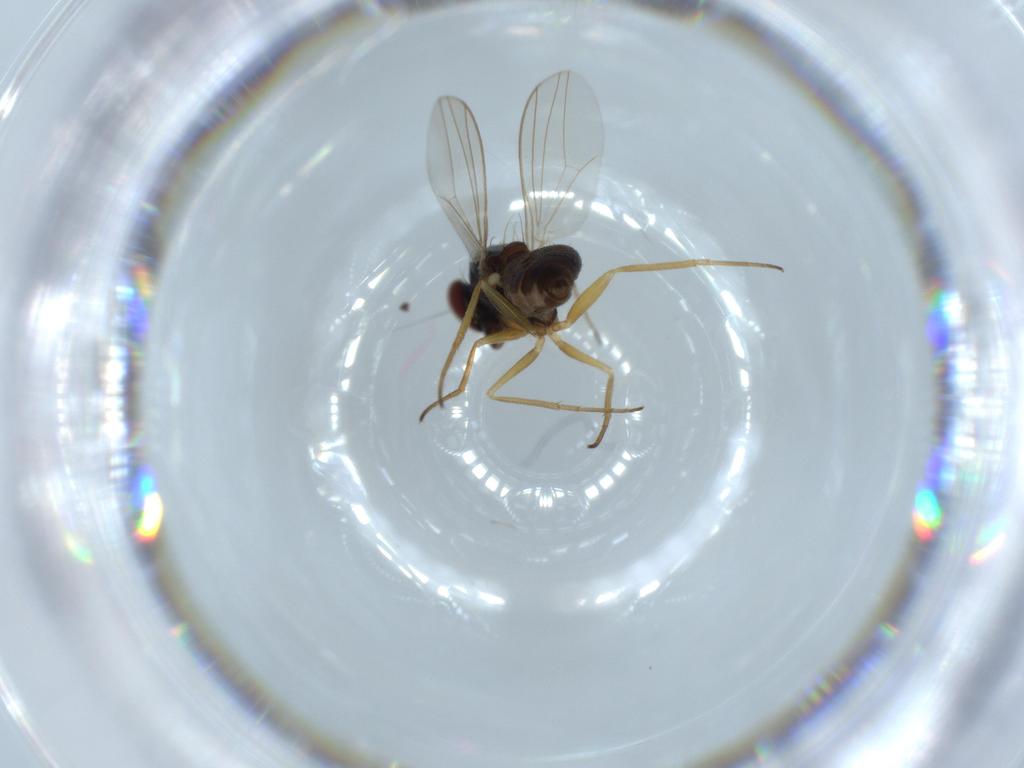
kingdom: Animalia
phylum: Arthropoda
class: Insecta
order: Diptera
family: Dolichopodidae
